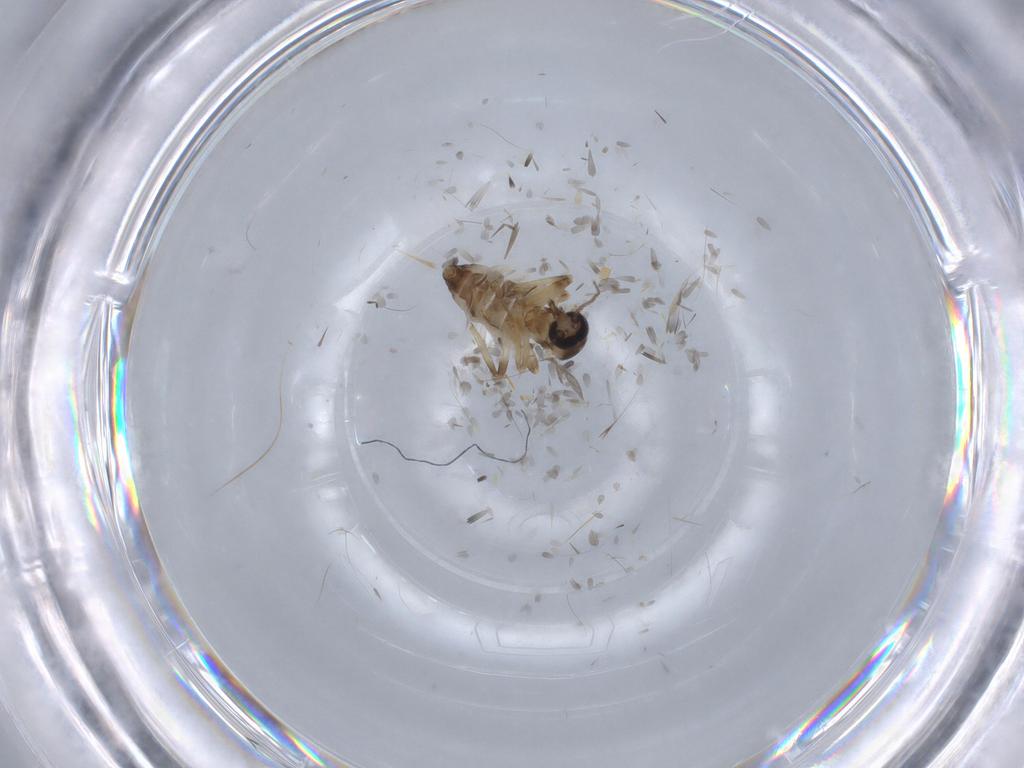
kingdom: Animalia
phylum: Arthropoda
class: Insecta
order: Diptera
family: Ceratopogonidae
